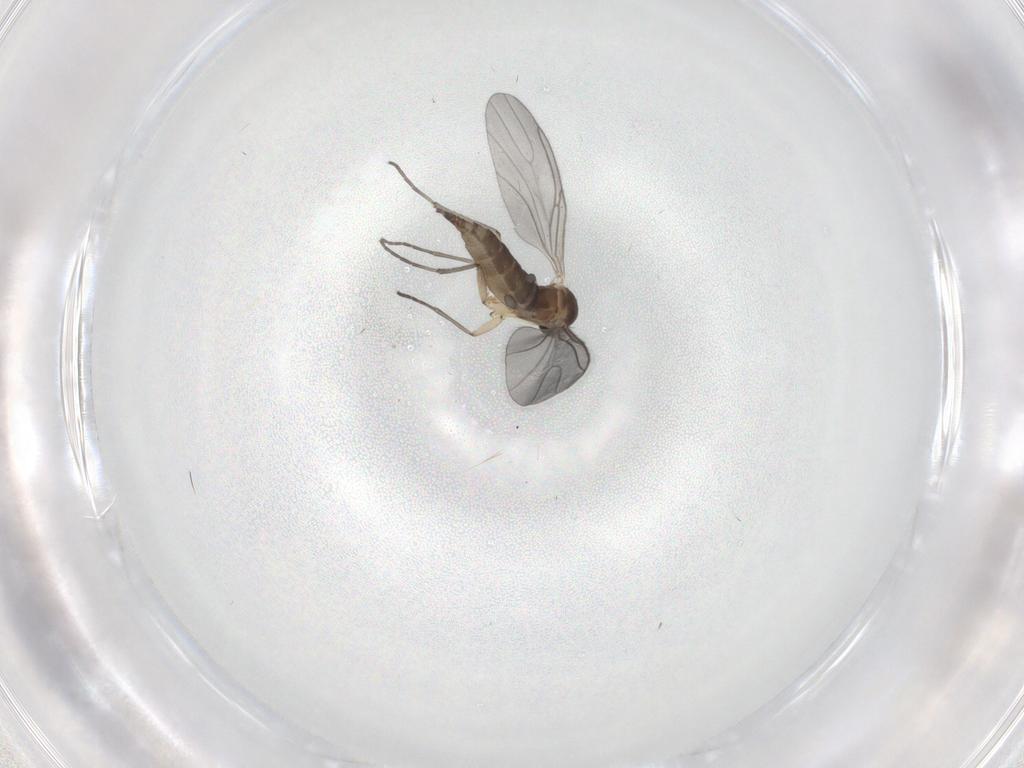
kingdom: Animalia
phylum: Arthropoda
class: Insecta
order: Diptera
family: Sciaridae
